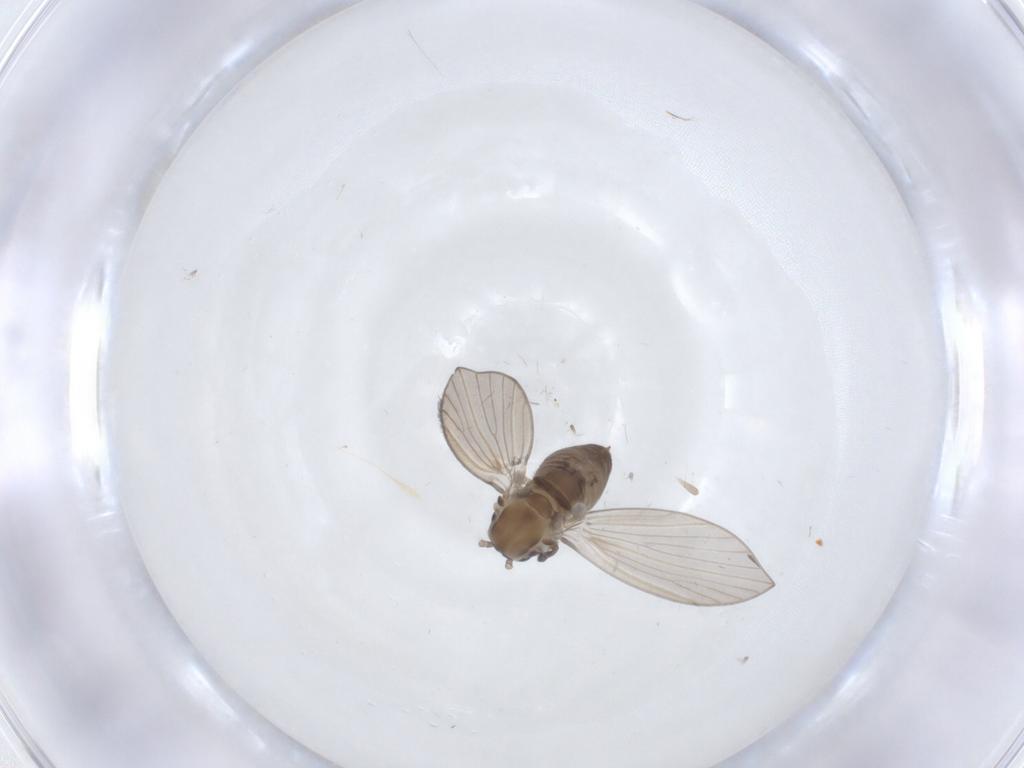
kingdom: Animalia
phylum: Arthropoda
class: Insecta
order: Diptera
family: Psychodidae
